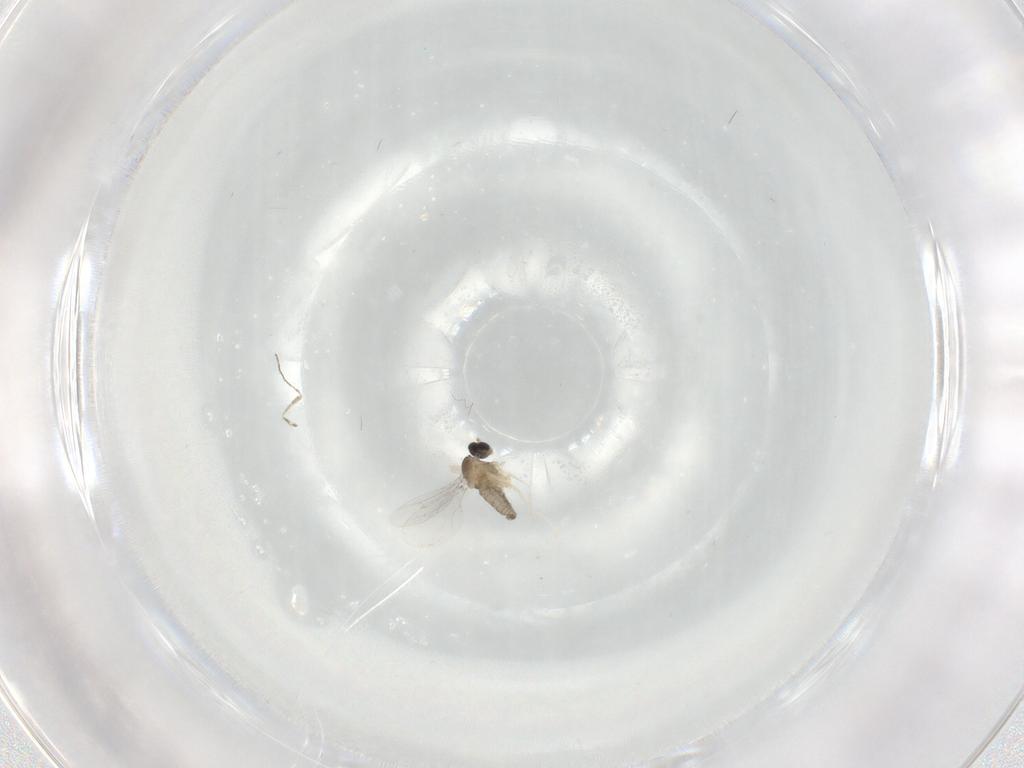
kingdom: Animalia
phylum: Arthropoda
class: Insecta
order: Diptera
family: Cecidomyiidae
